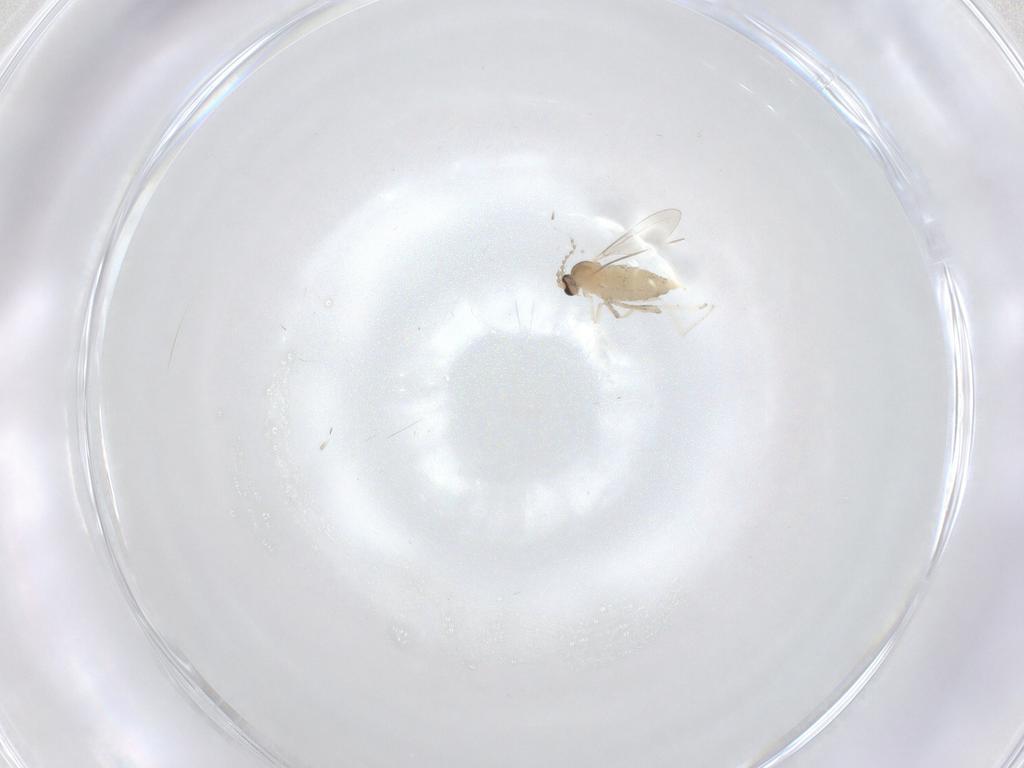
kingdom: Animalia
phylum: Arthropoda
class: Insecta
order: Diptera
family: Cecidomyiidae
